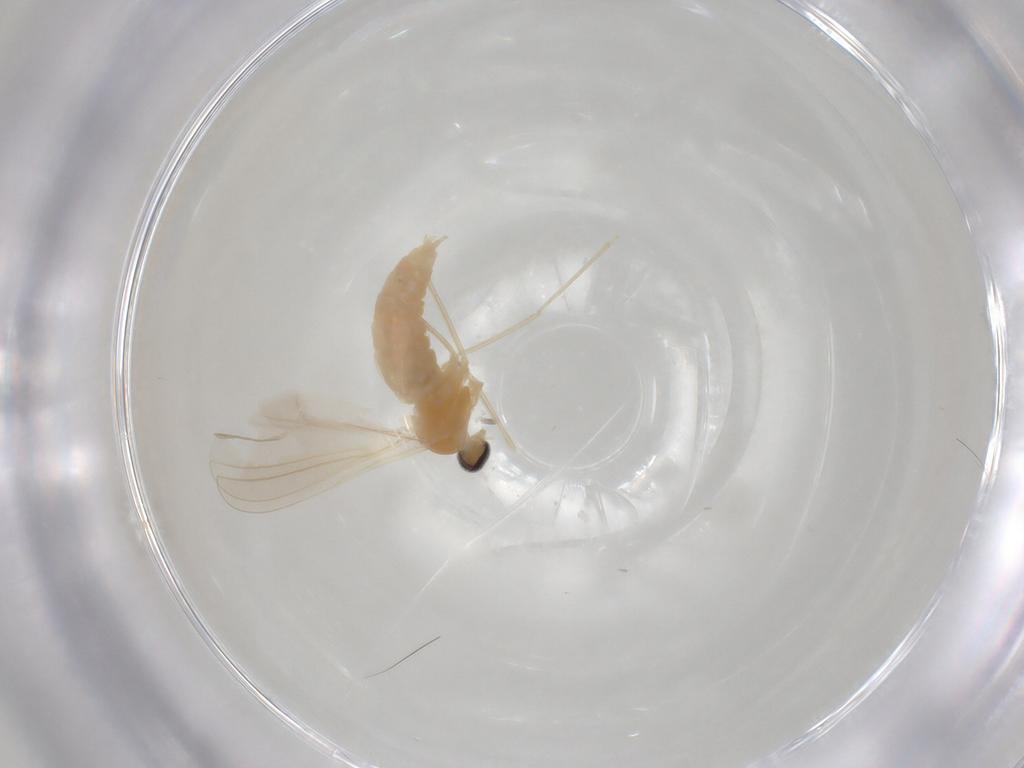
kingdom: Animalia
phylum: Arthropoda
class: Insecta
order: Diptera
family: Cecidomyiidae
